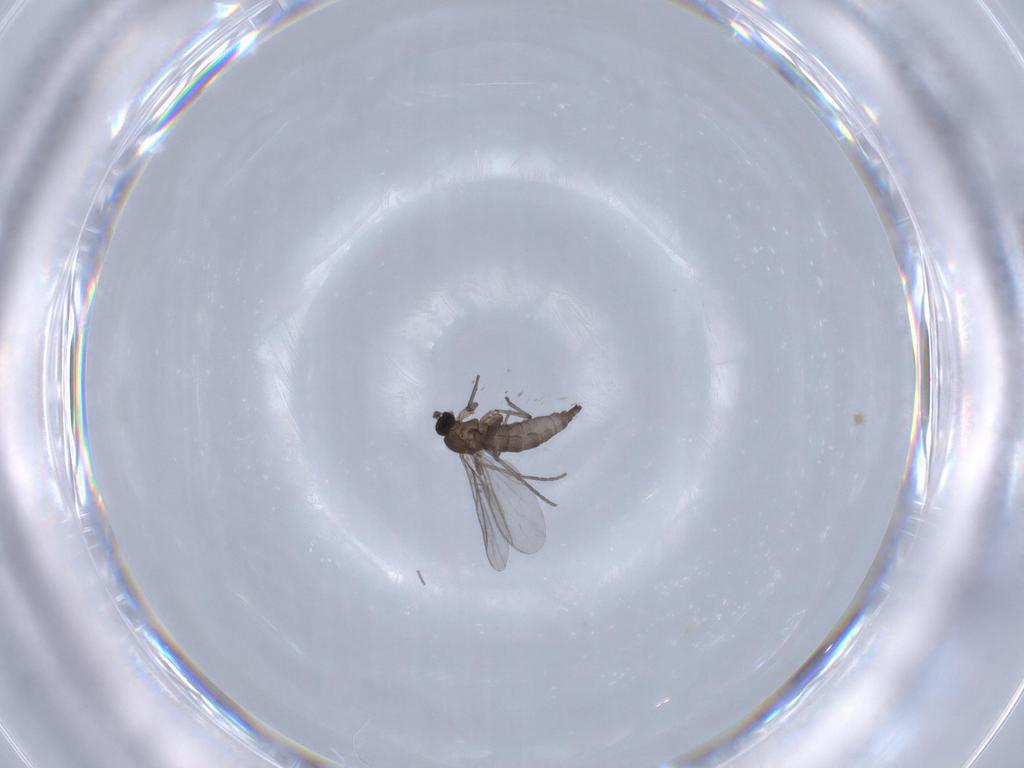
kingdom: Animalia
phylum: Arthropoda
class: Insecta
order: Diptera
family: Psychodidae
